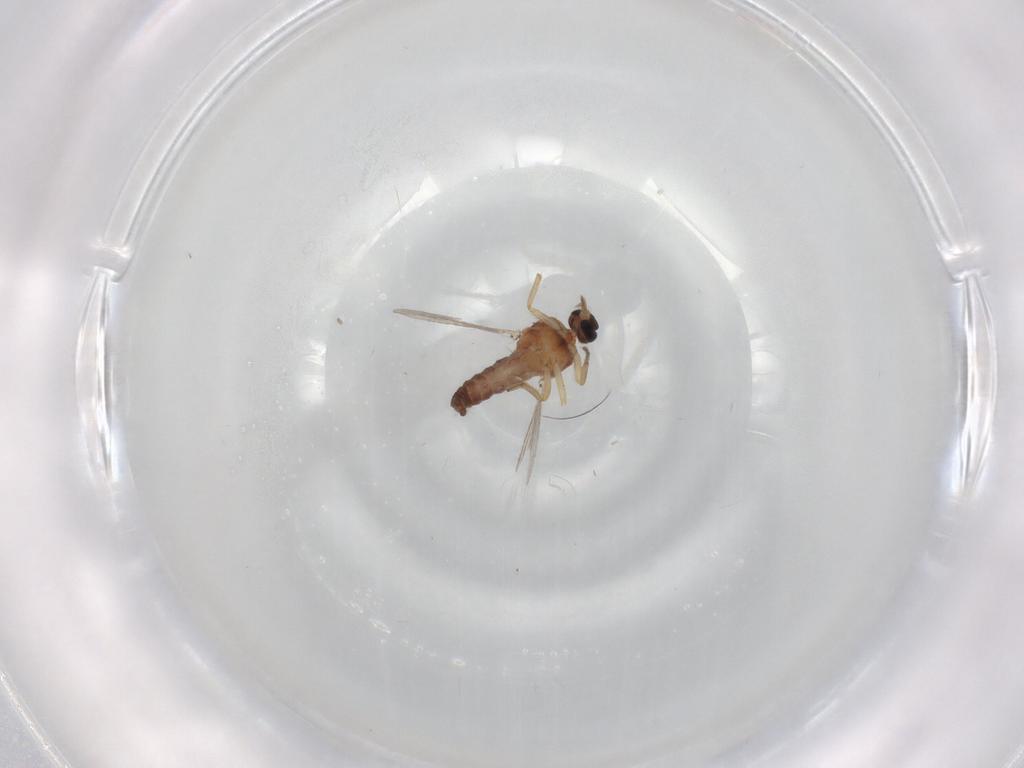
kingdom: Animalia
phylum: Arthropoda
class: Insecta
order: Diptera
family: Ceratopogonidae
